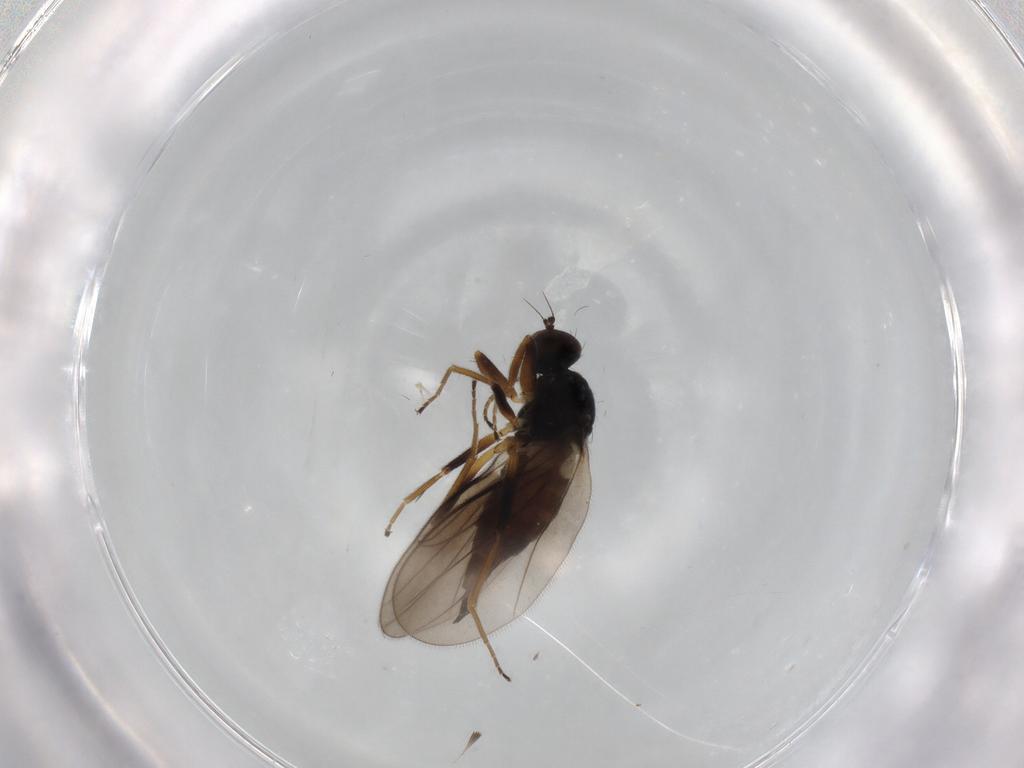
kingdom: Animalia
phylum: Arthropoda
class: Insecta
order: Diptera
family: Hybotidae
